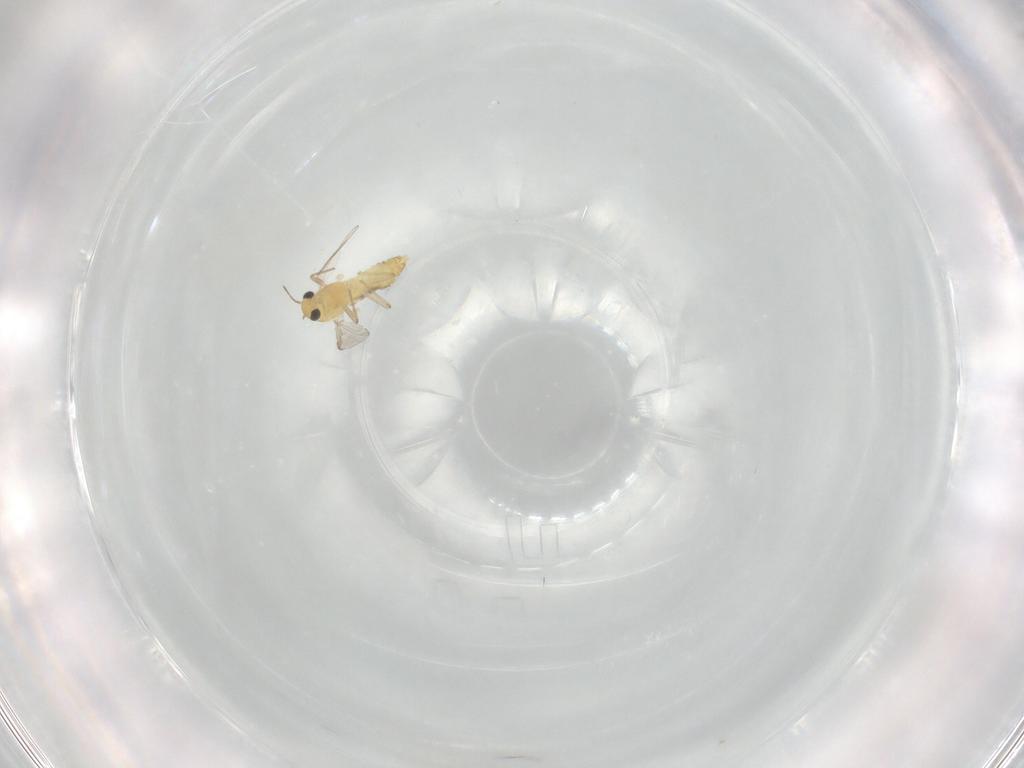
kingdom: Animalia
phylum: Arthropoda
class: Insecta
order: Diptera
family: Chironomidae
